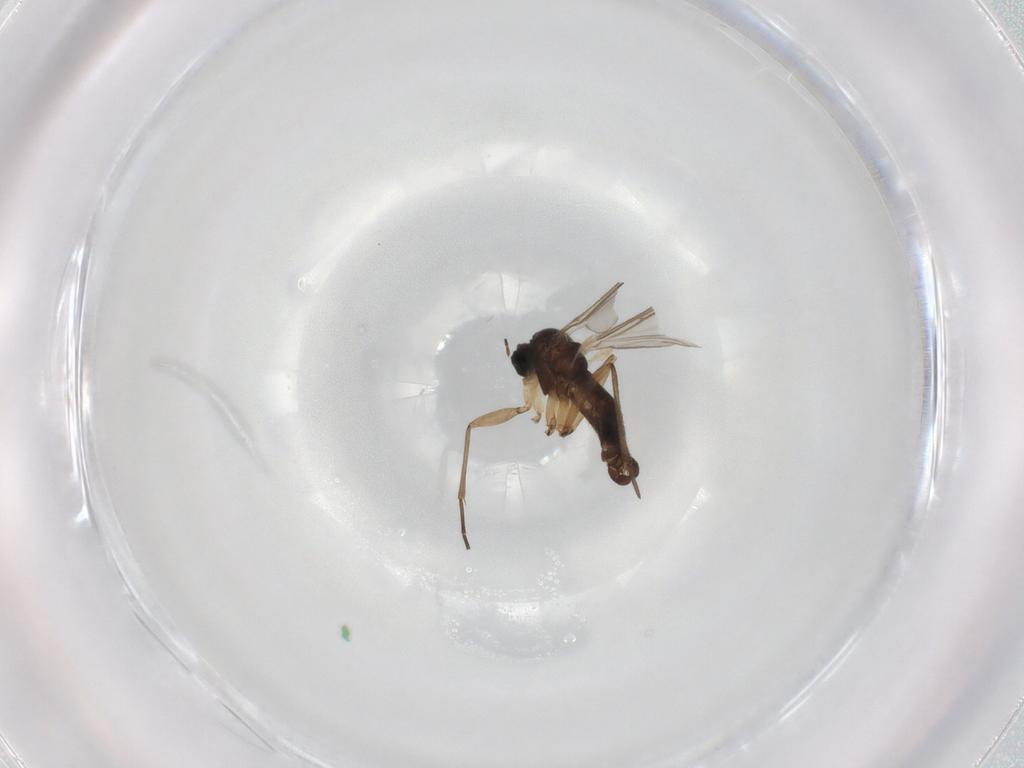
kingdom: Animalia
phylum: Arthropoda
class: Insecta
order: Diptera
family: Sciaridae
